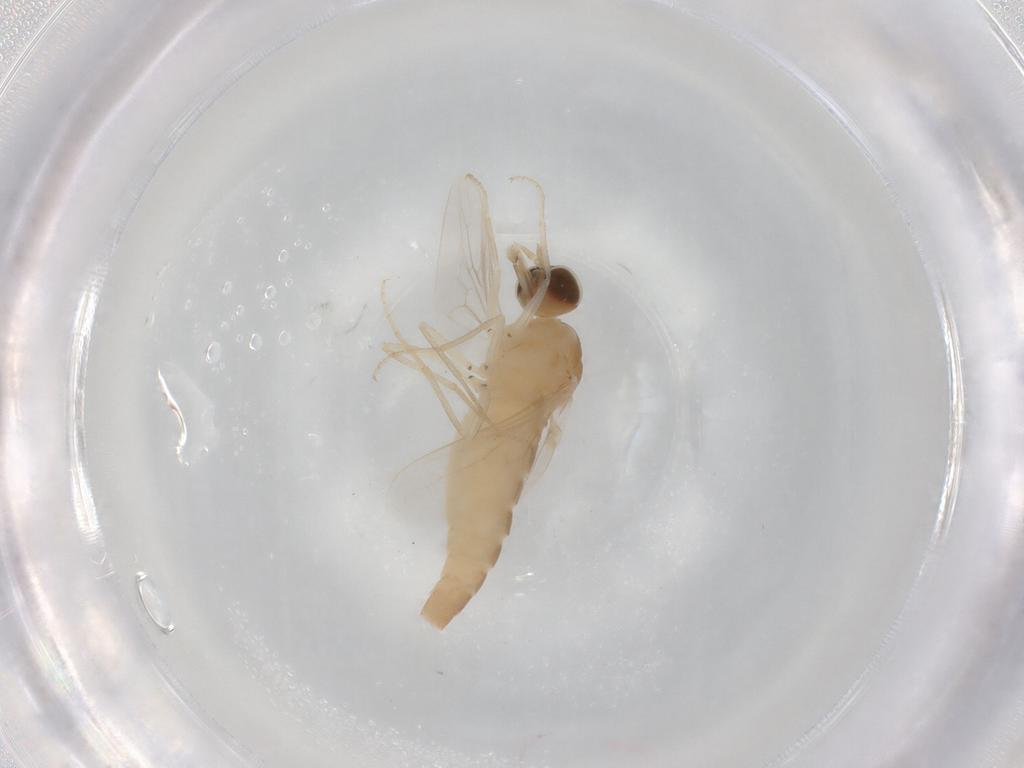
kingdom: Animalia
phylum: Arthropoda
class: Insecta
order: Diptera
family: Scenopinidae
